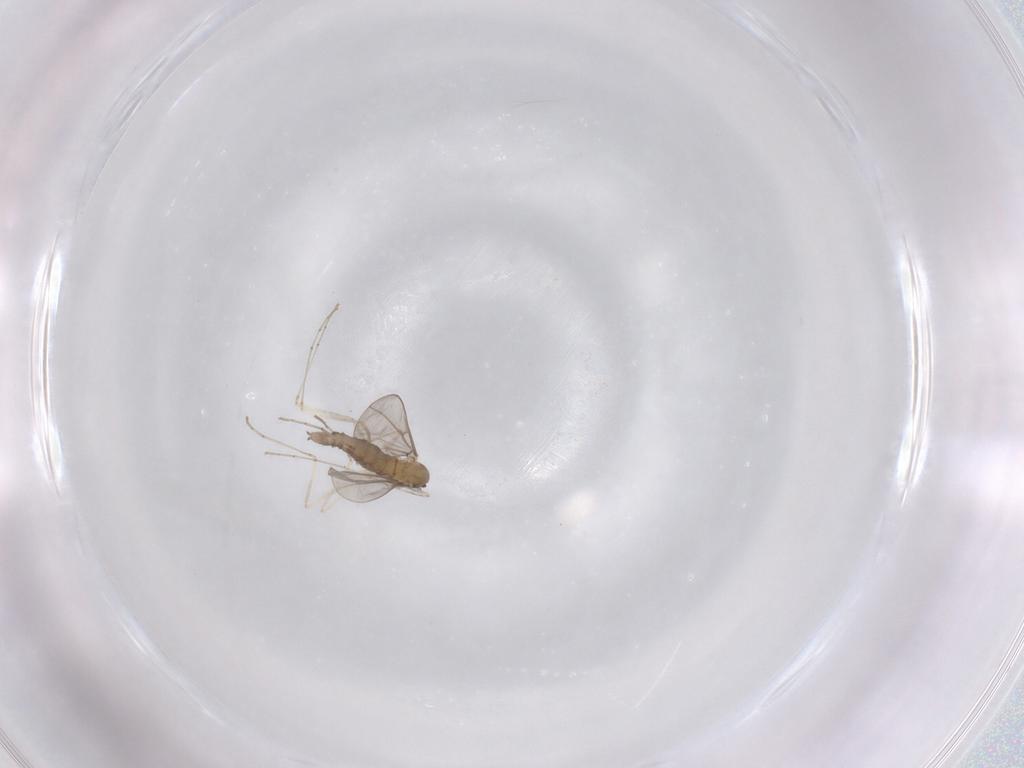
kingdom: Animalia
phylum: Arthropoda
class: Insecta
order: Diptera
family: Cecidomyiidae
